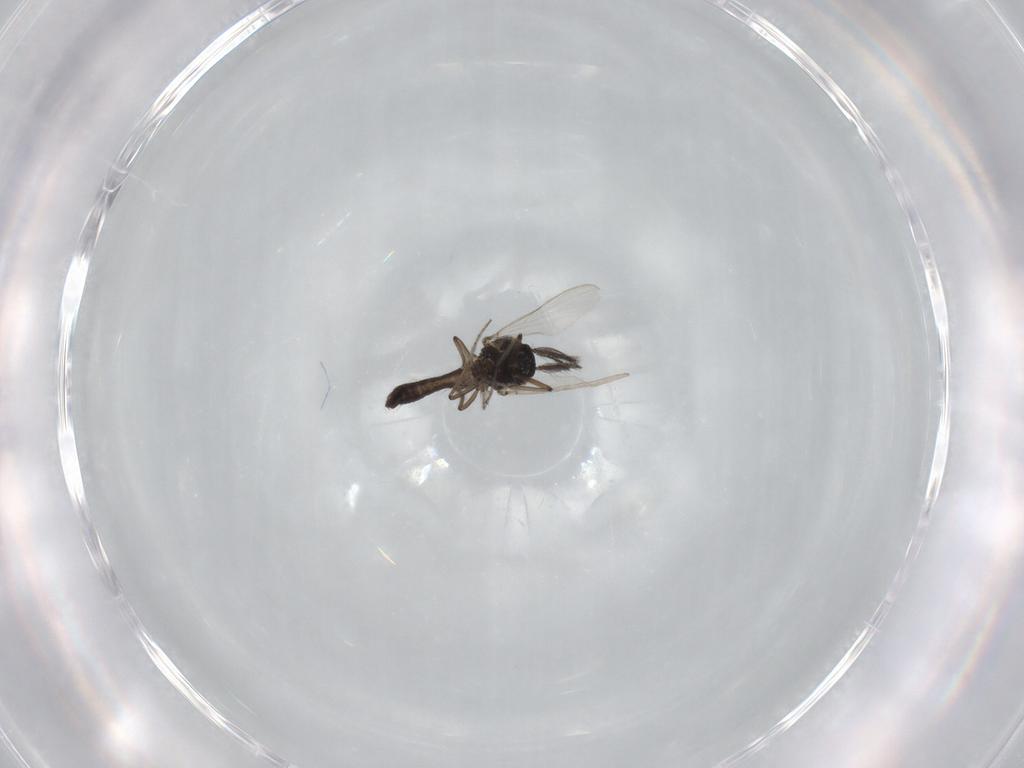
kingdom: Animalia
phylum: Arthropoda
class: Insecta
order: Diptera
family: Ceratopogonidae
